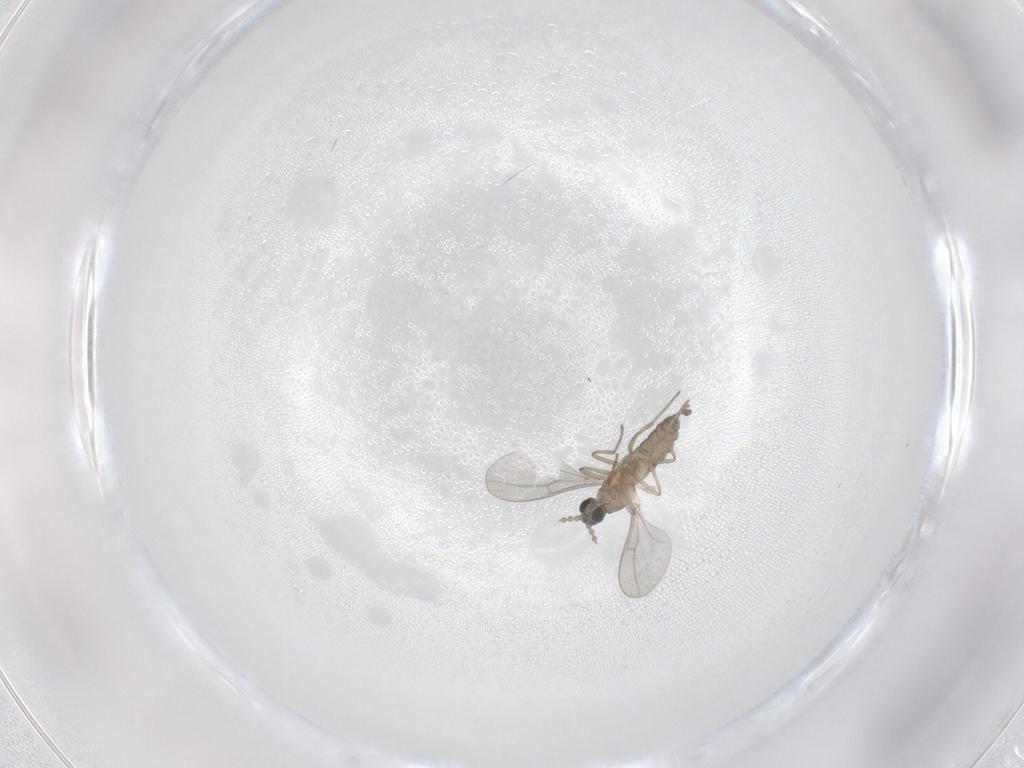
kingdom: Animalia
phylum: Arthropoda
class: Insecta
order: Diptera
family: Cecidomyiidae
